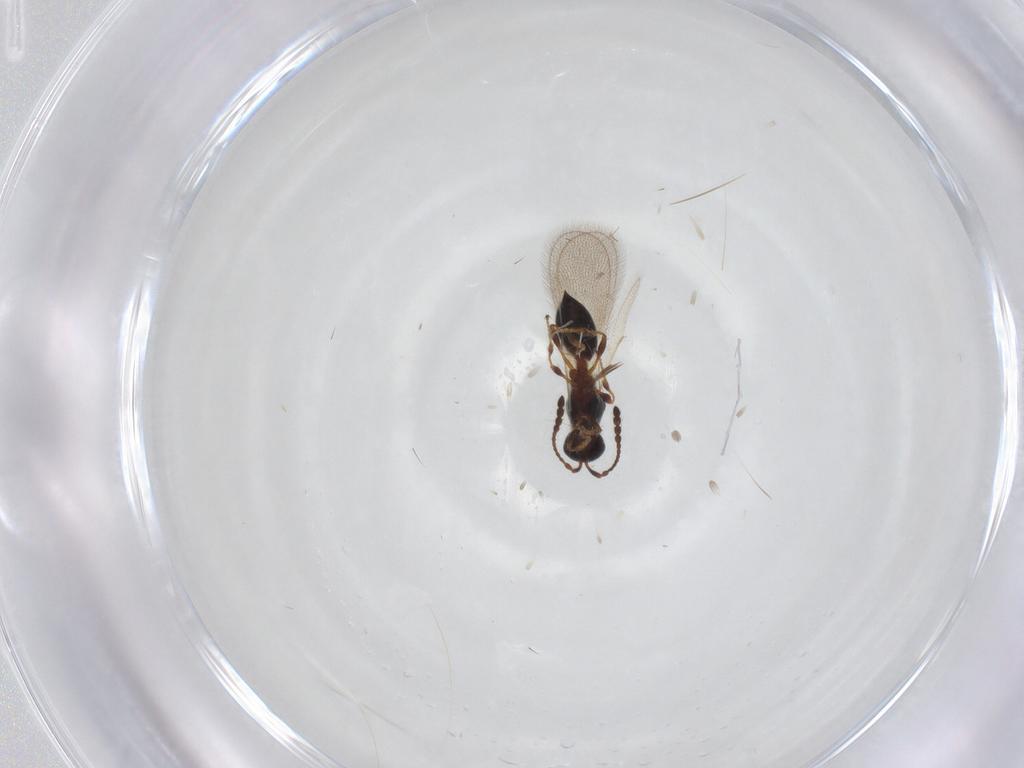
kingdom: Animalia
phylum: Arthropoda
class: Insecta
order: Hymenoptera
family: Diapriidae
